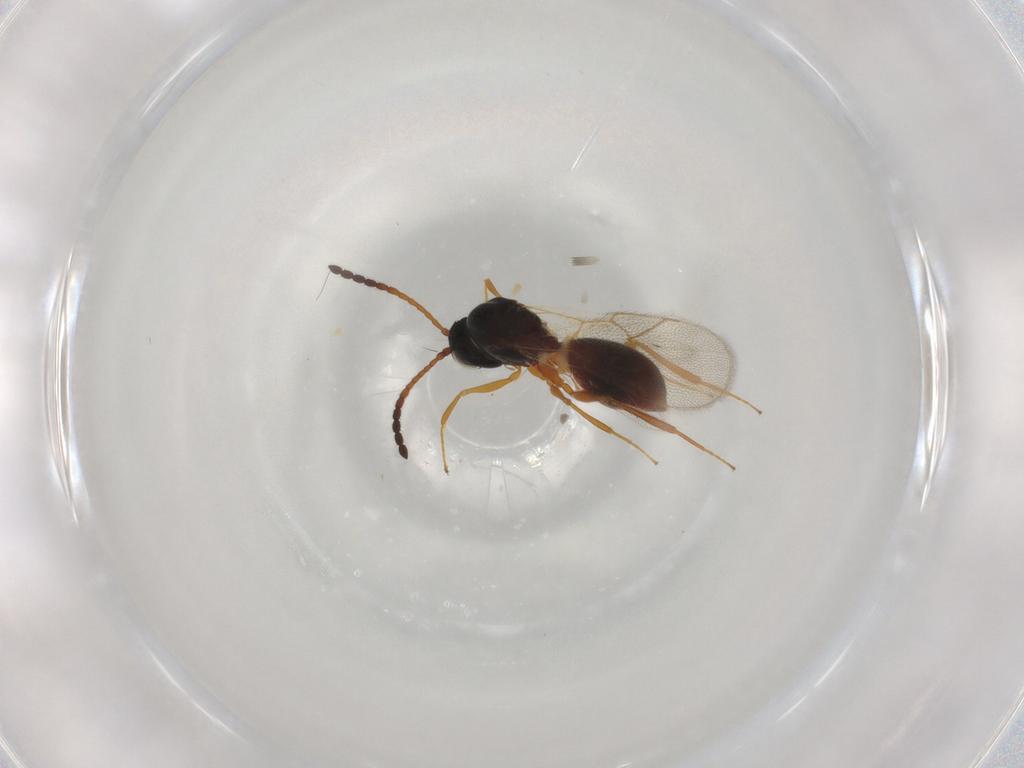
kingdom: Animalia
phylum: Arthropoda
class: Insecta
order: Hymenoptera
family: Figitidae
